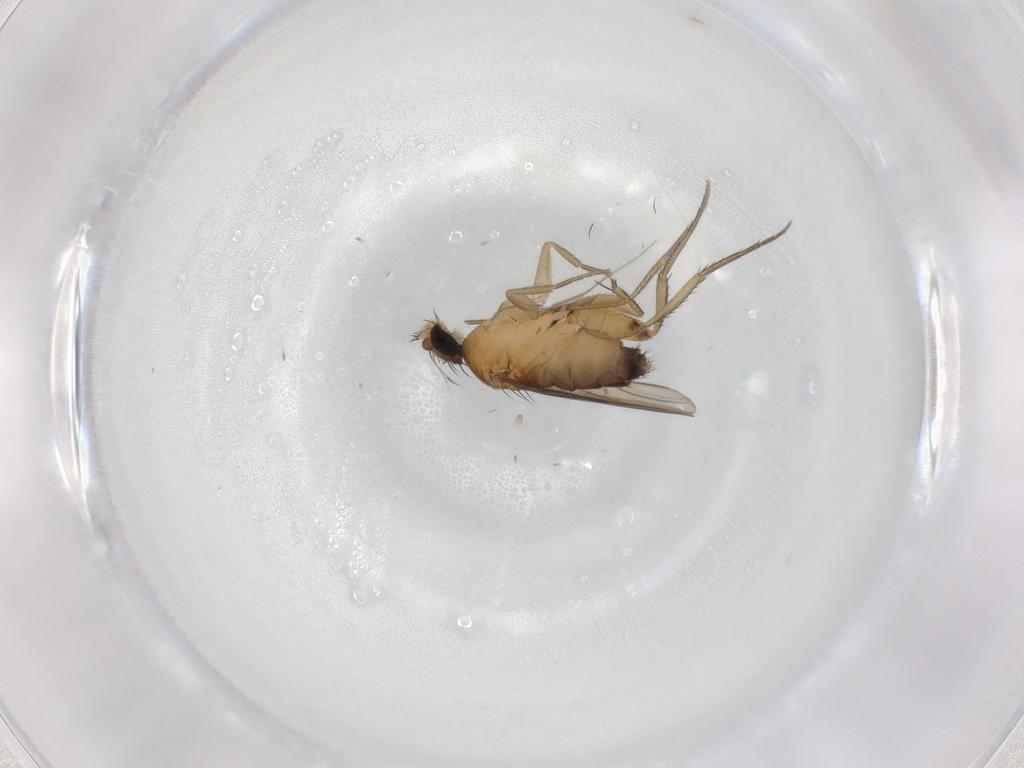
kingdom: Animalia
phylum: Arthropoda
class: Insecta
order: Diptera
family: Phoridae
